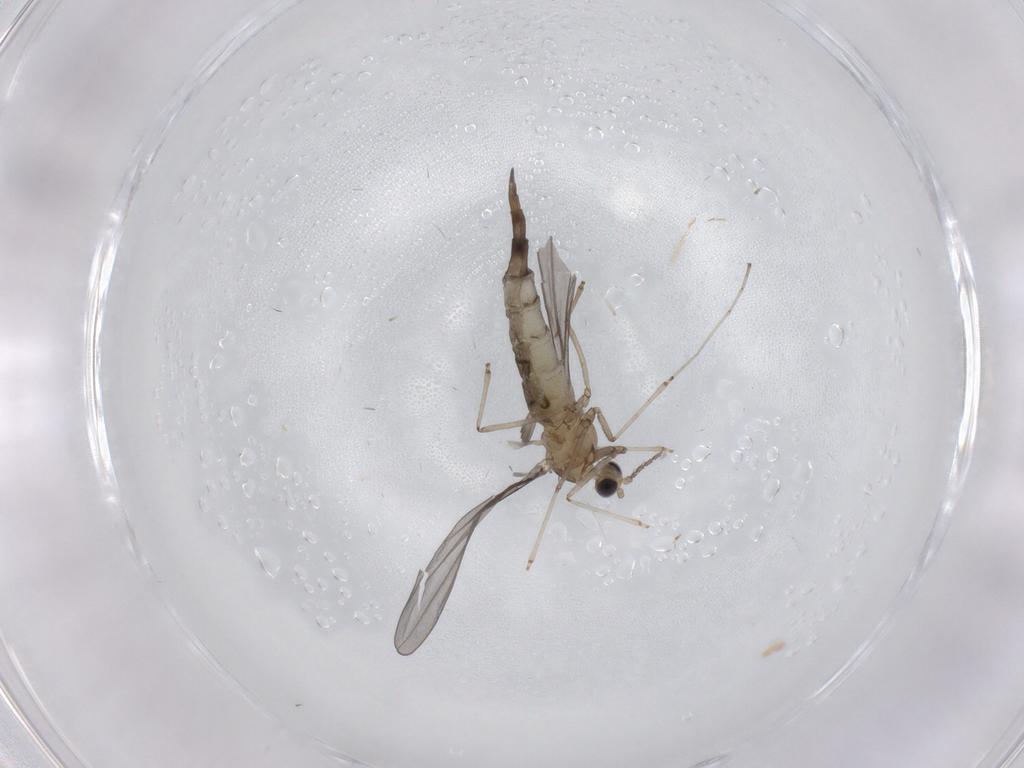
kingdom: Animalia
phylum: Arthropoda
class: Insecta
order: Diptera
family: Cecidomyiidae
